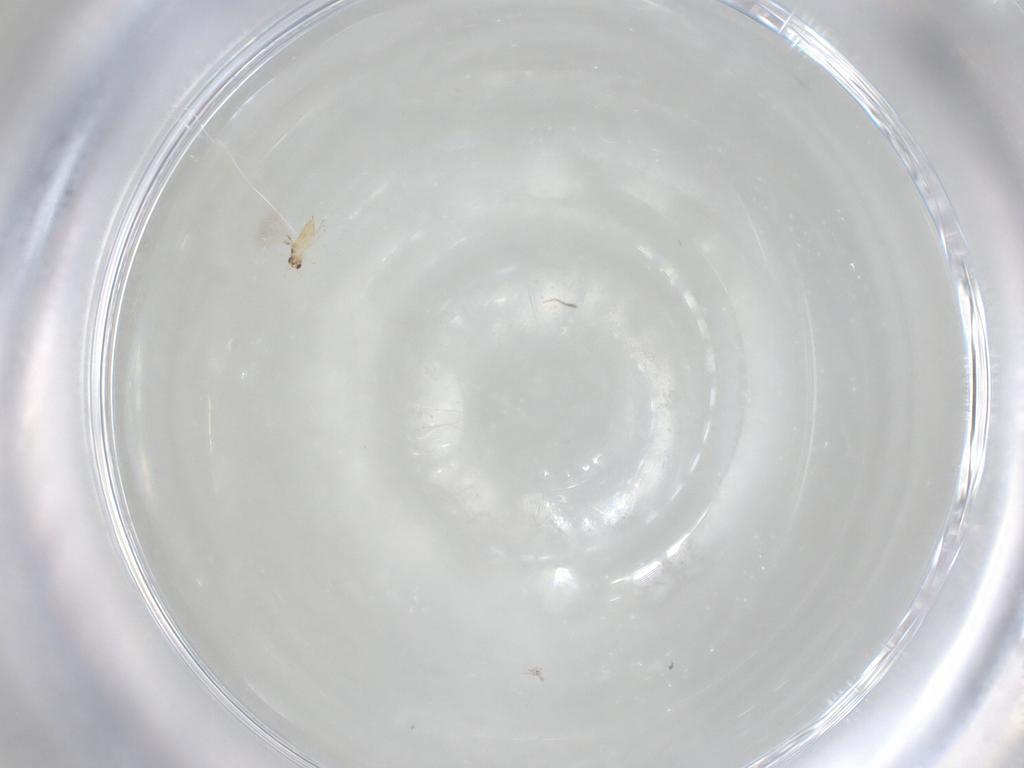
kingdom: Animalia
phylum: Arthropoda
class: Insecta
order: Hymenoptera
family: Mymaridae
